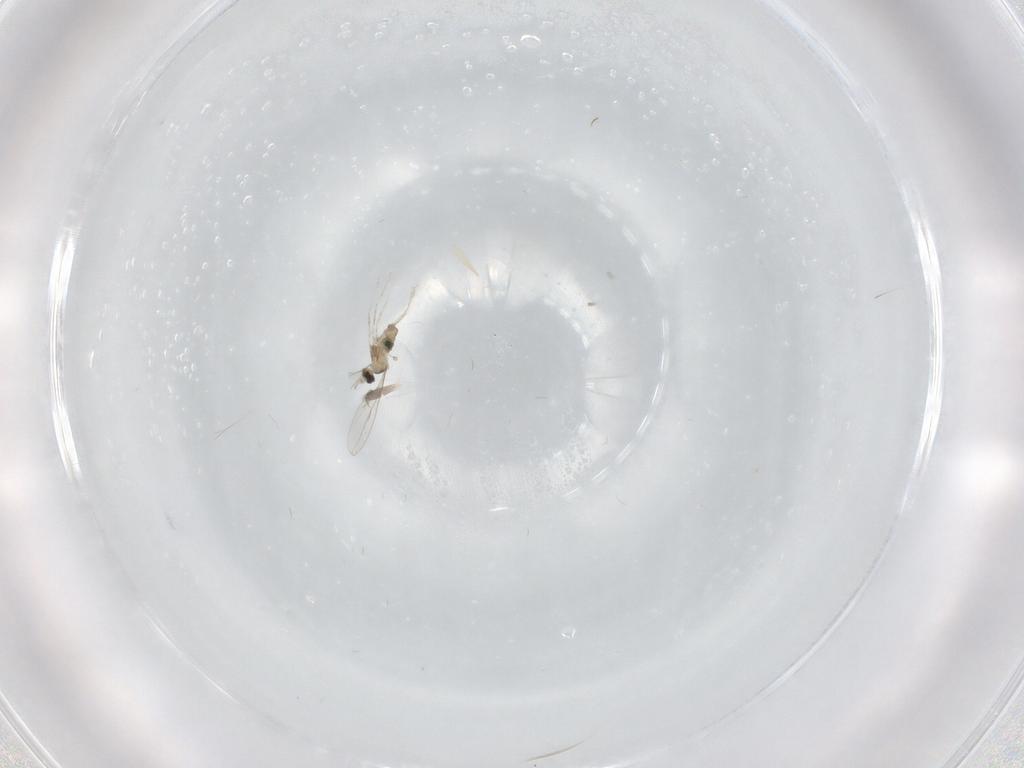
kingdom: Animalia
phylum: Arthropoda
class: Insecta
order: Diptera
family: Cecidomyiidae
